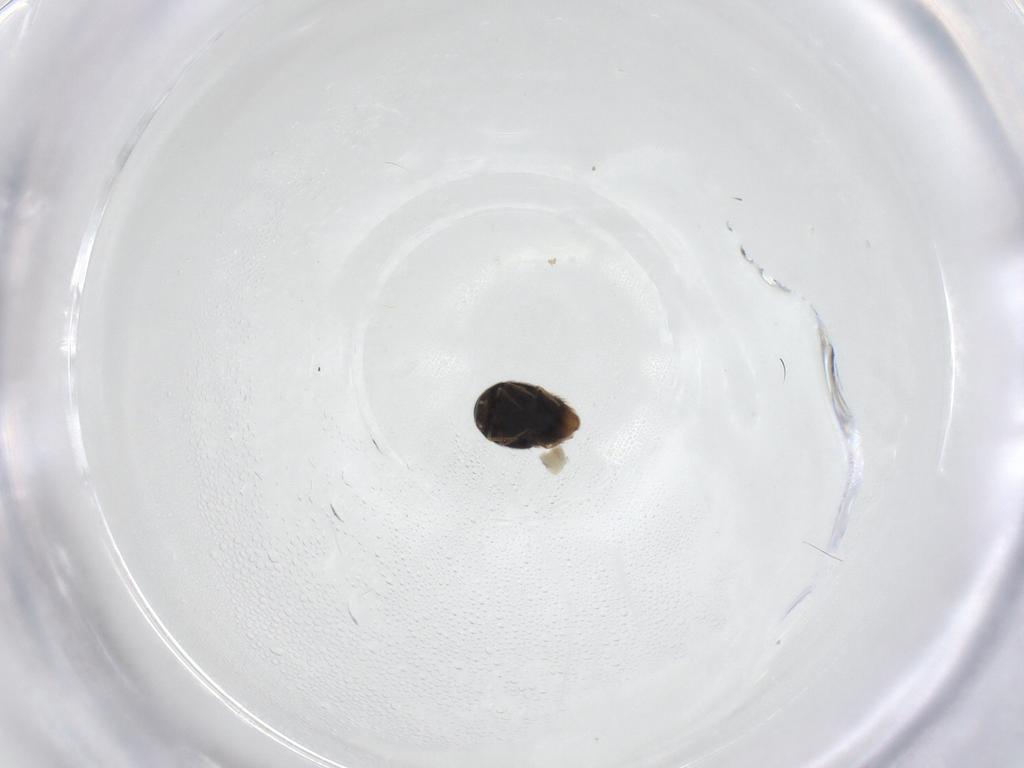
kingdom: Animalia
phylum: Arthropoda
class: Insecta
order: Coleoptera
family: Staphylinidae
